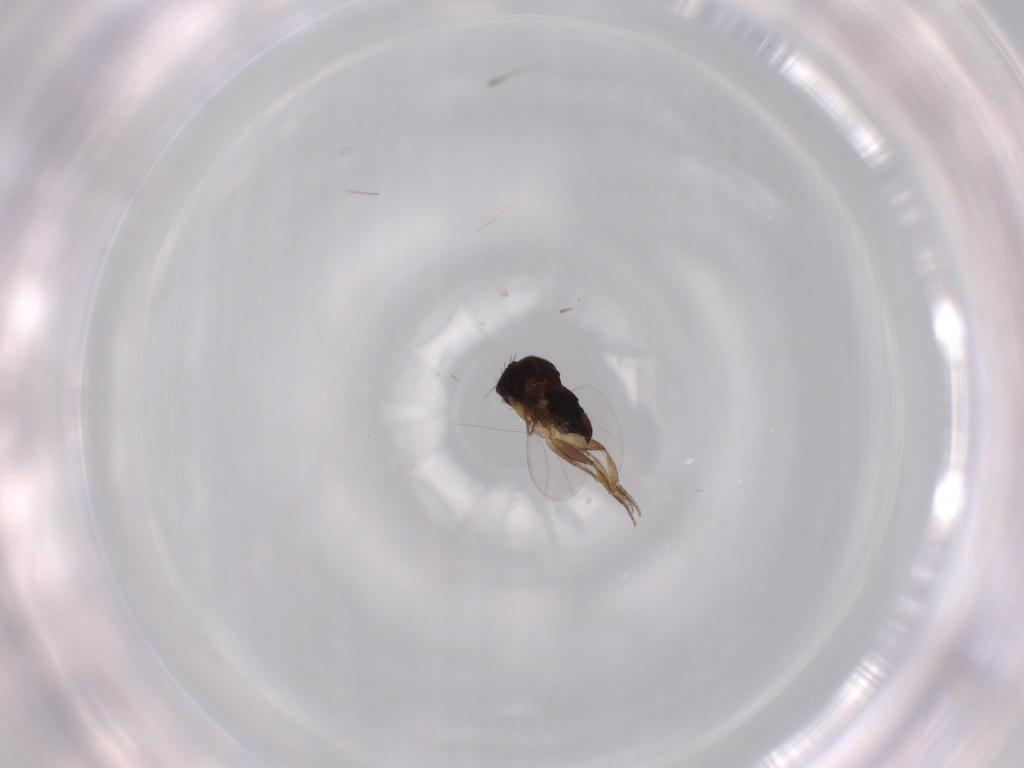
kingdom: Animalia
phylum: Arthropoda
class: Insecta
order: Diptera
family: Phoridae
